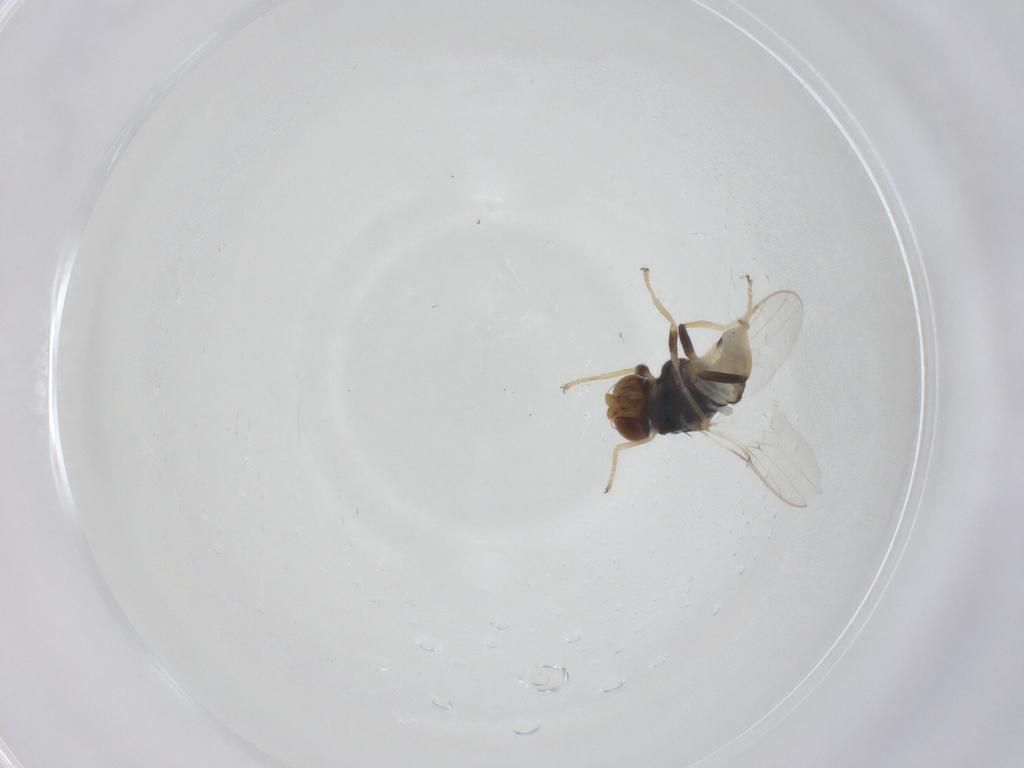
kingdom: Animalia
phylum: Arthropoda
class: Insecta
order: Diptera
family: Chloropidae
